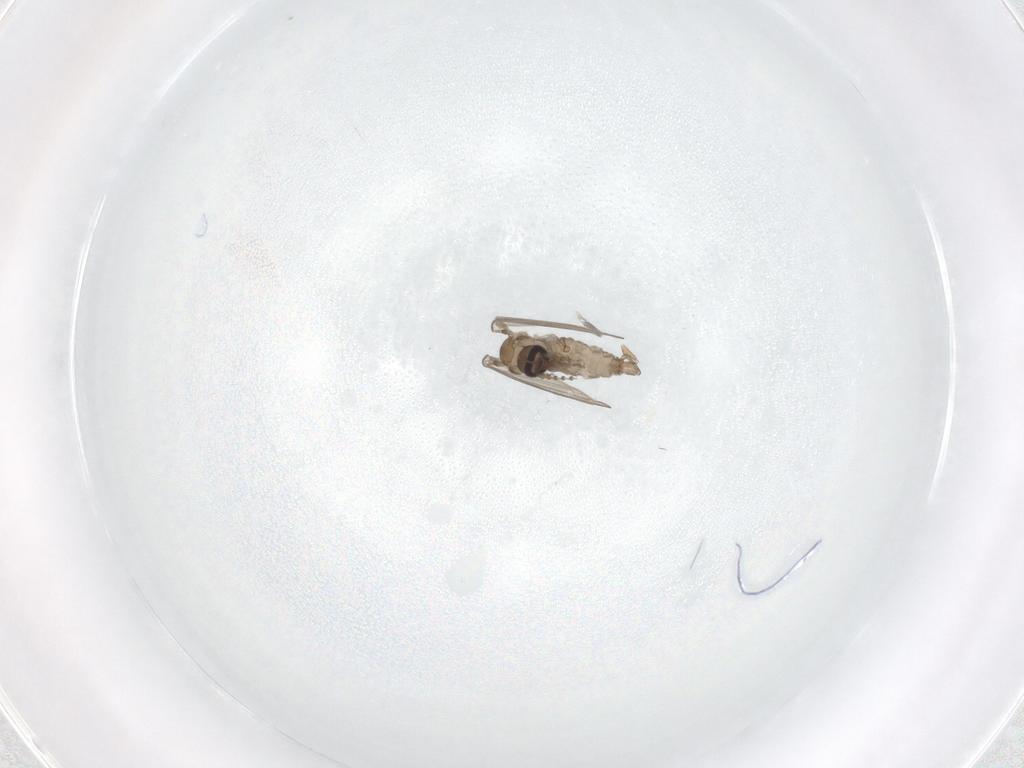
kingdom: Animalia
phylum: Arthropoda
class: Insecta
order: Diptera
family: Psychodidae
